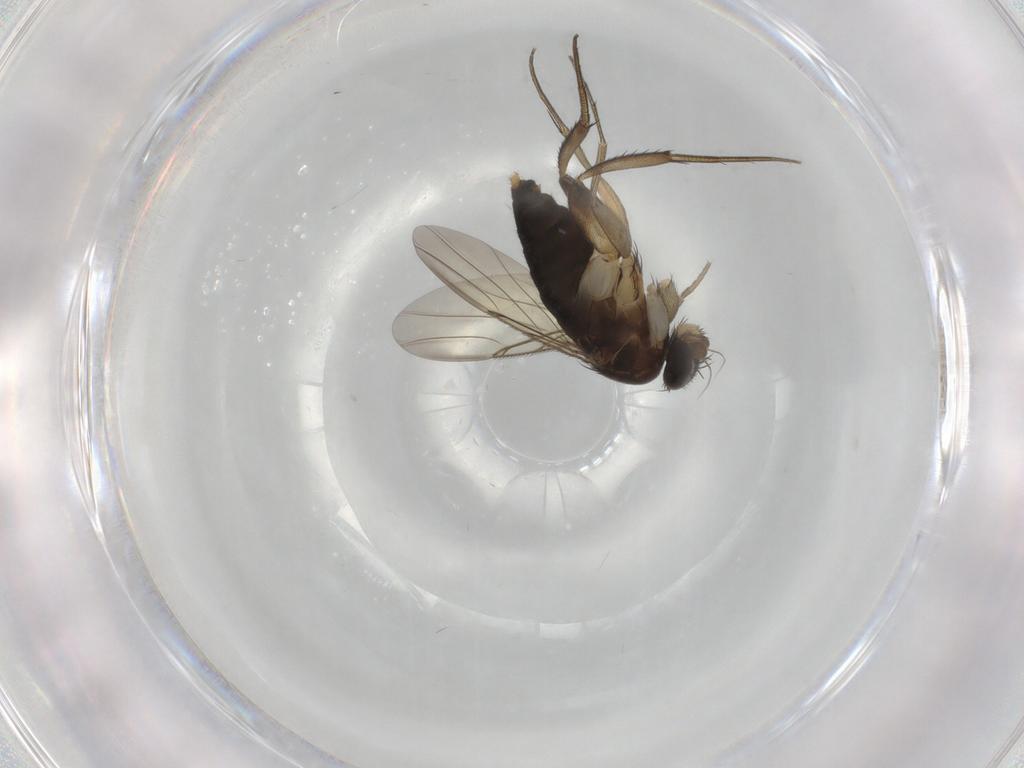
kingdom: Animalia
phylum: Arthropoda
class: Insecta
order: Diptera
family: Phoridae
